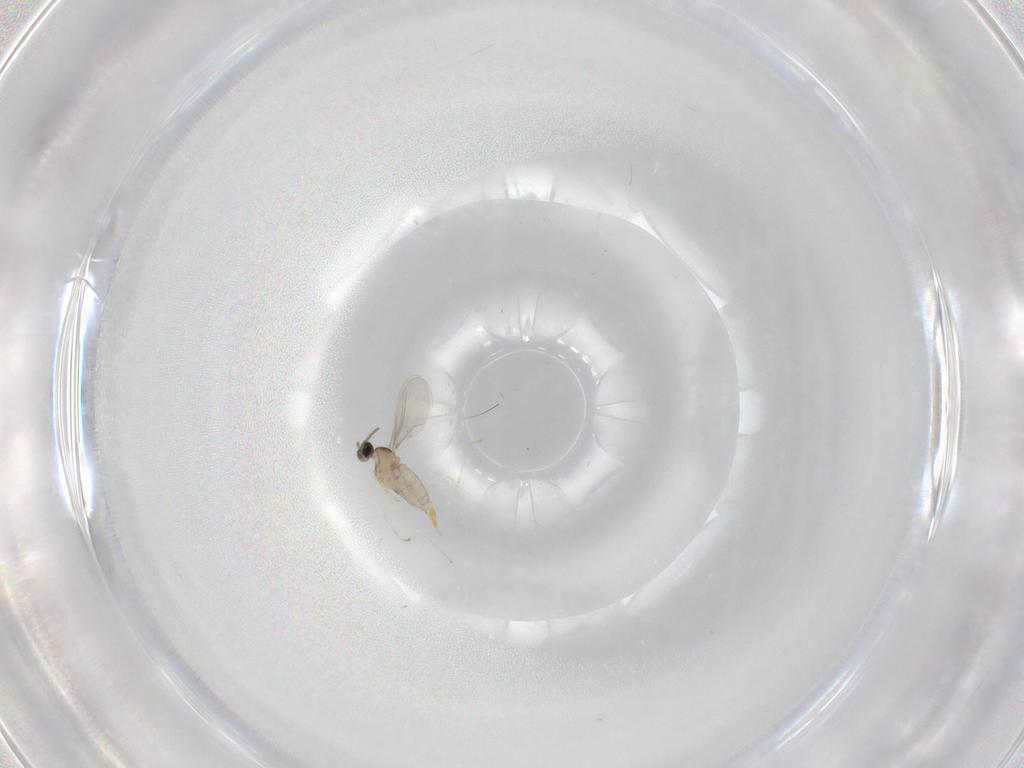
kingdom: Animalia
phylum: Arthropoda
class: Insecta
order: Diptera
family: Cecidomyiidae
